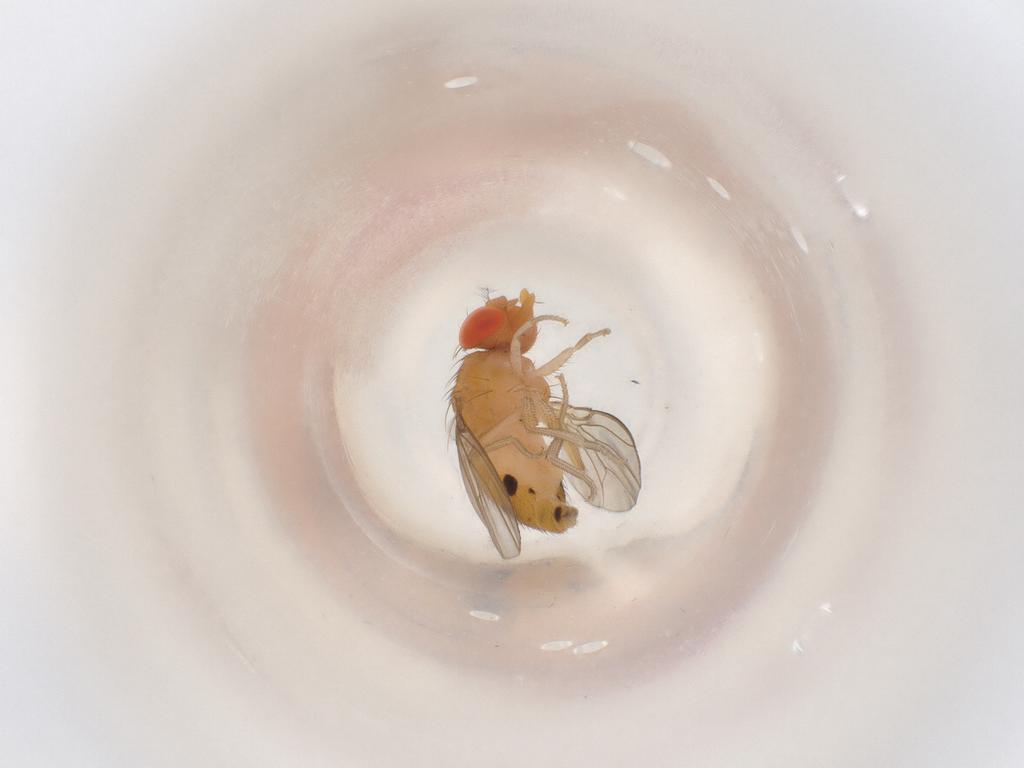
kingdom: Animalia
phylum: Arthropoda
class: Insecta
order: Diptera
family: Drosophilidae
